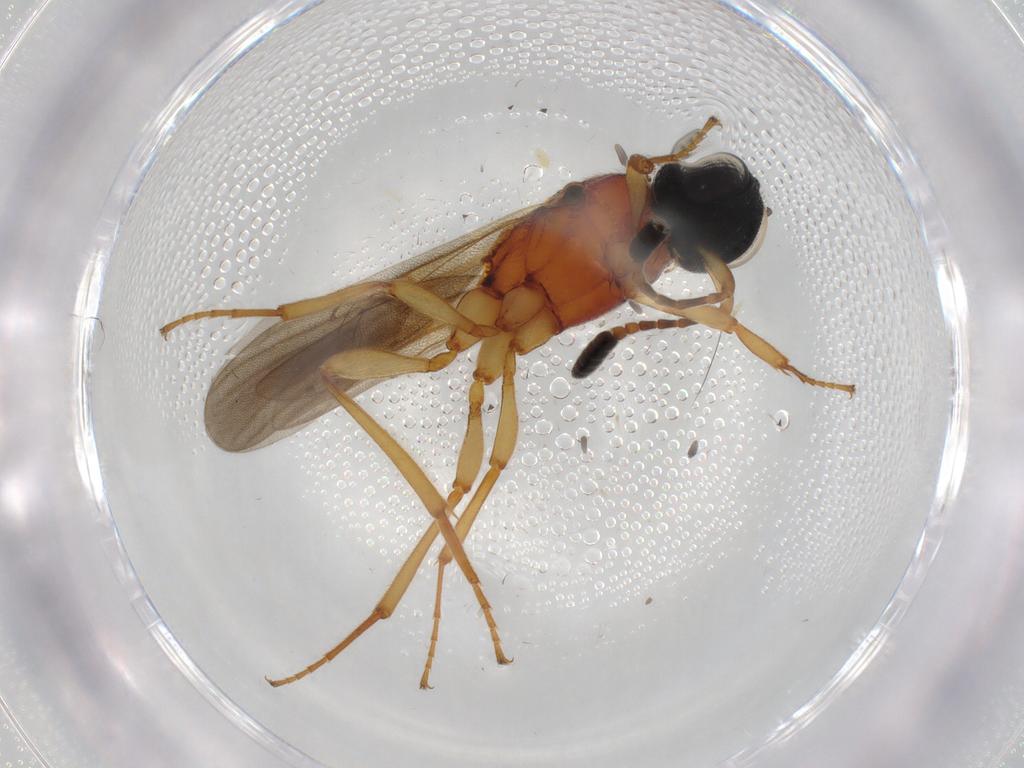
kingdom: Animalia
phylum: Arthropoda
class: Insecta
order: Hymenoptera
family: Scelionidae
